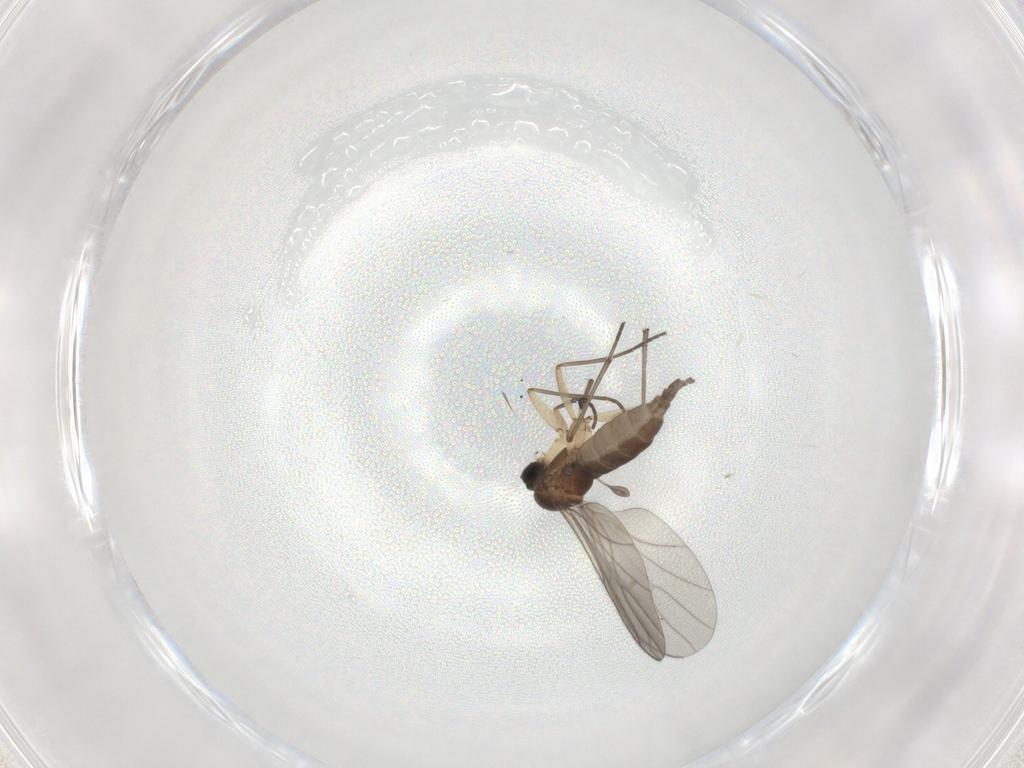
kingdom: Animalia
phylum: Arthropoda
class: Insecta
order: Diptera
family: Sciaridae
